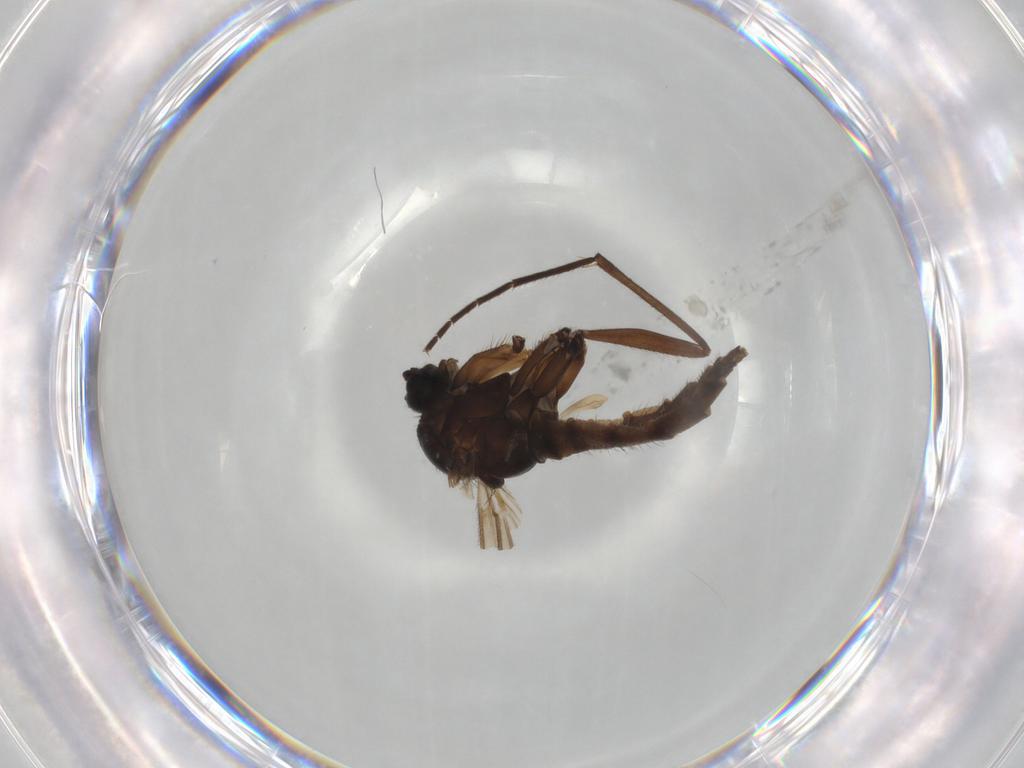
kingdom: Animalia
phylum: Arthropoda
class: Insecta
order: Diptera
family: Sciaridae
